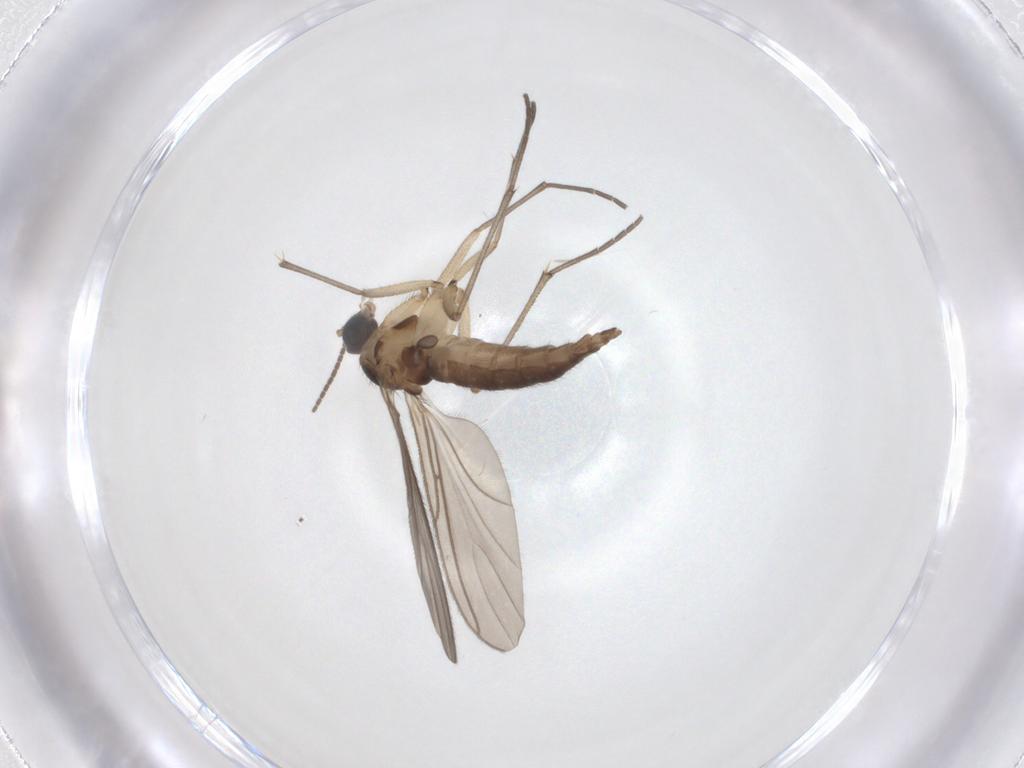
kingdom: Animalia
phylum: Arthropoda
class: Insecta
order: Diptera
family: Sciaridae
